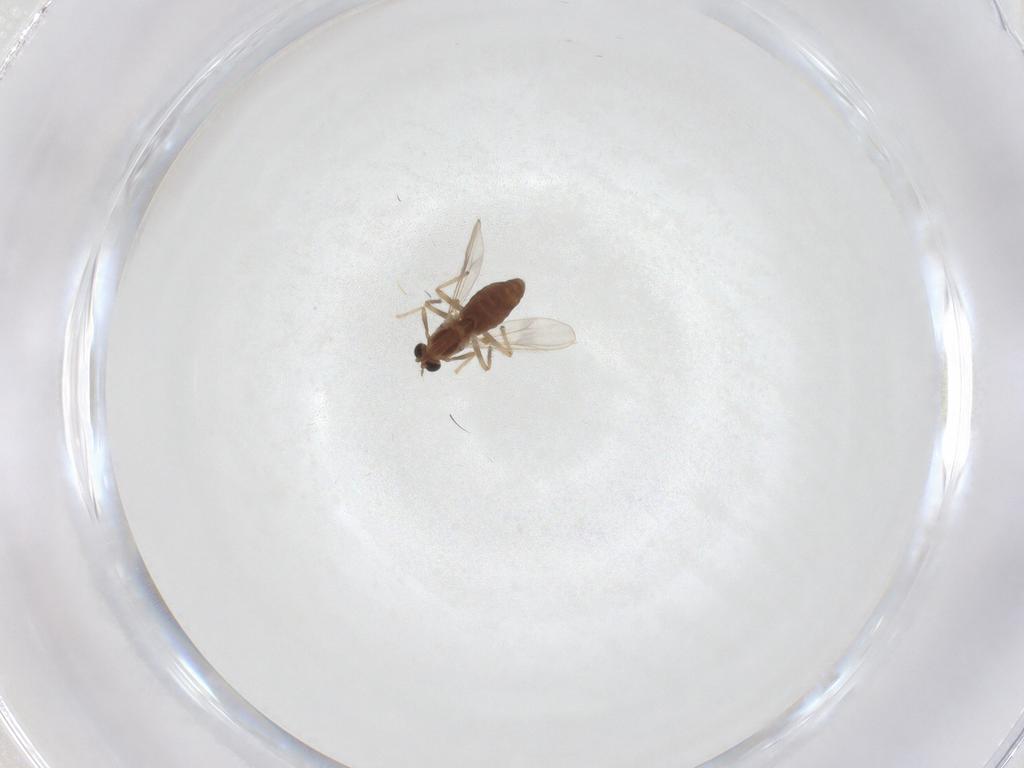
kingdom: Animalia
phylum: Arthropoda
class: Insecta
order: Diptera
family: Chironomidae
